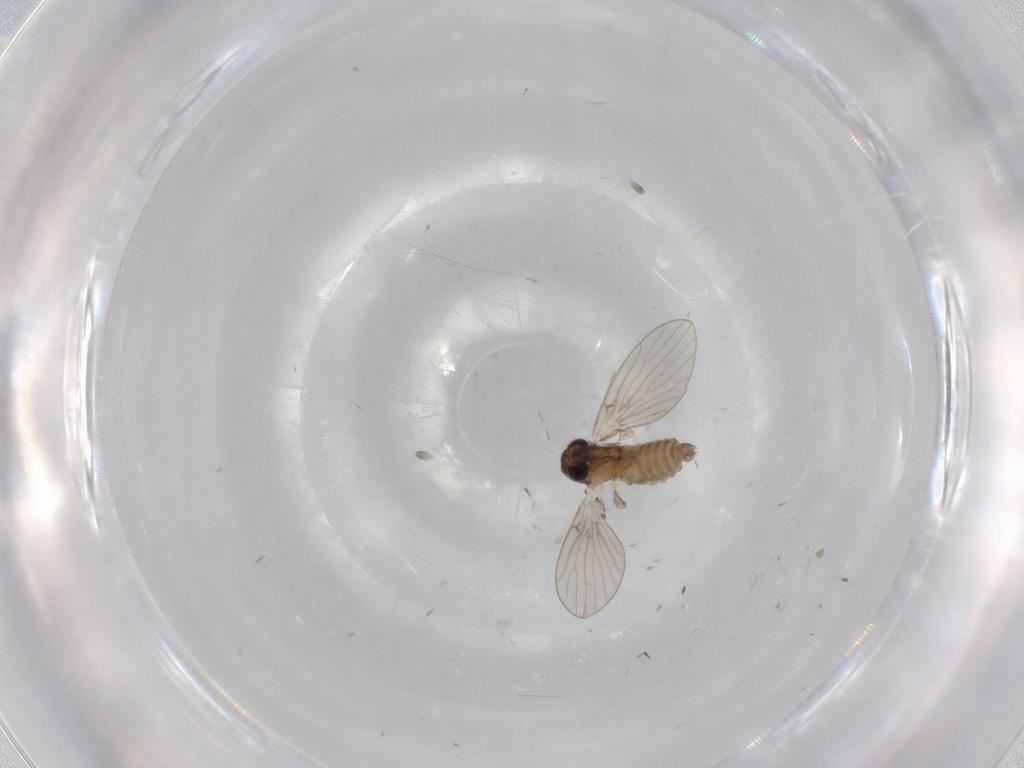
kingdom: Animalia
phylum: Arthropoda
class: Insecta
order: Diptera
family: Psychodidae
